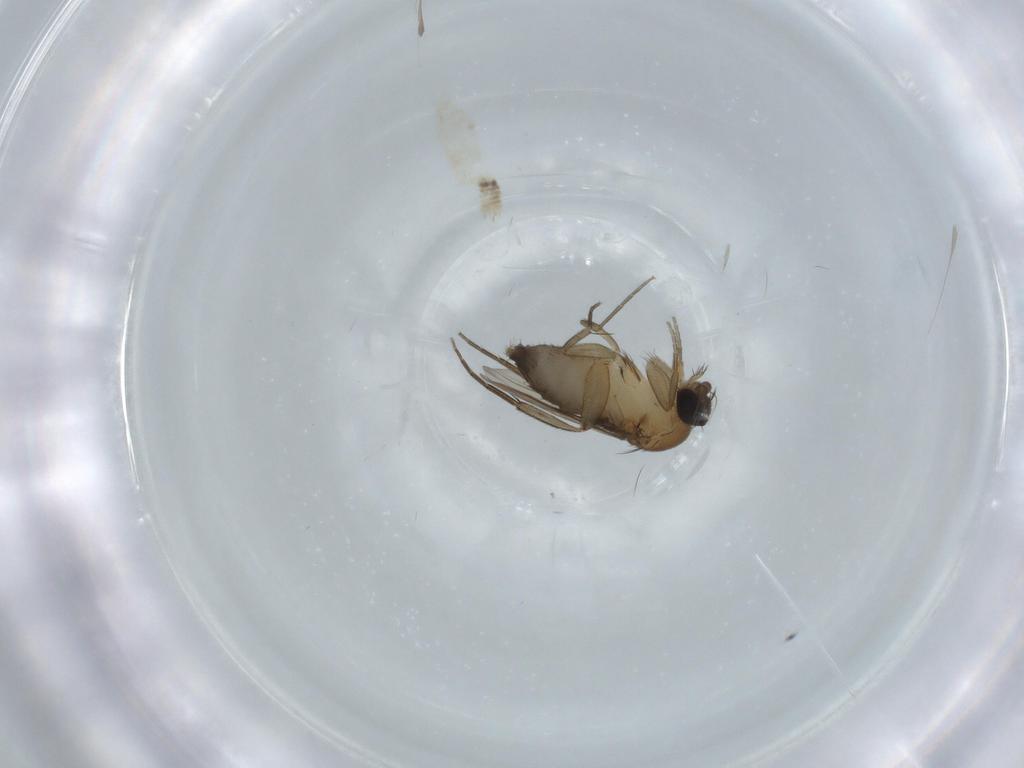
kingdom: Animalia
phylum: Arthropoda
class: Insecta
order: Diptera
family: Phoridae
